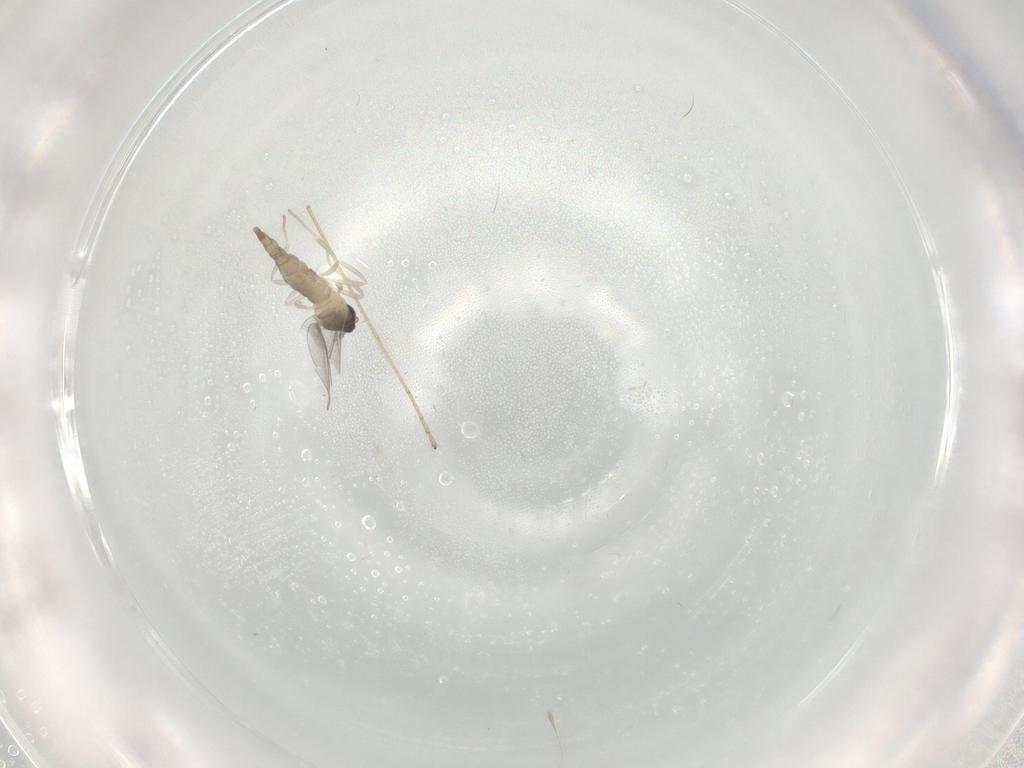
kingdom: Animalia
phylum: Arthropoda
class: Insecta
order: Diptera
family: Cecidomyiidae
